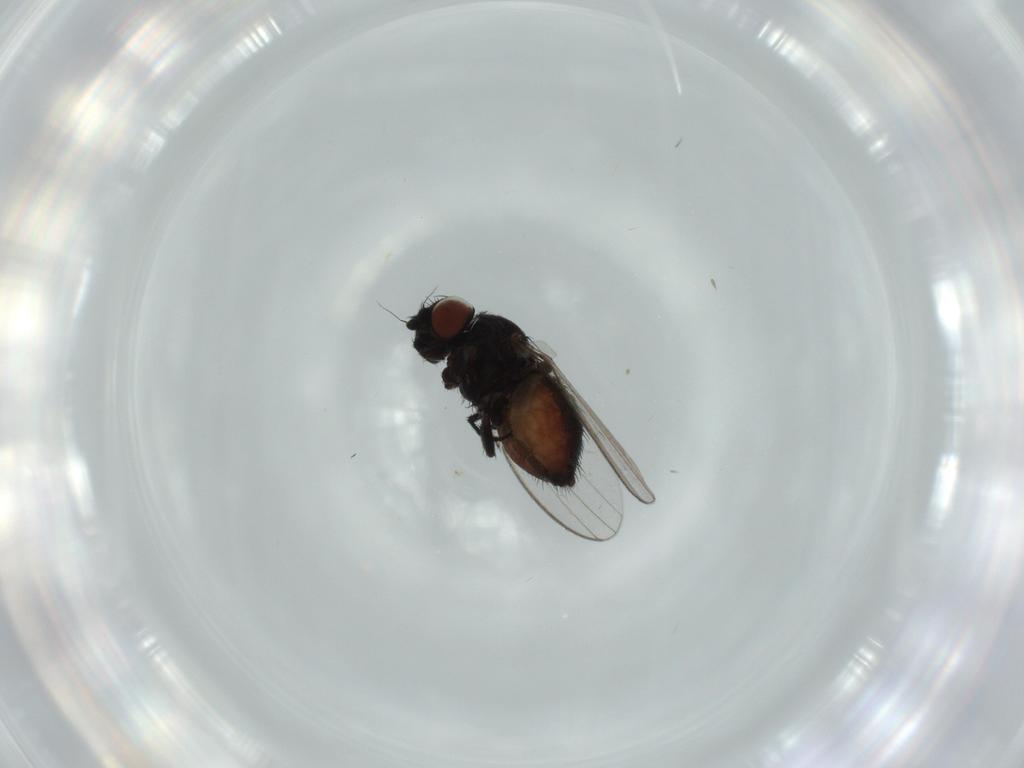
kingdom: Animalia
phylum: Arthropoda
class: Insecta
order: Diptera
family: Milichiidae
